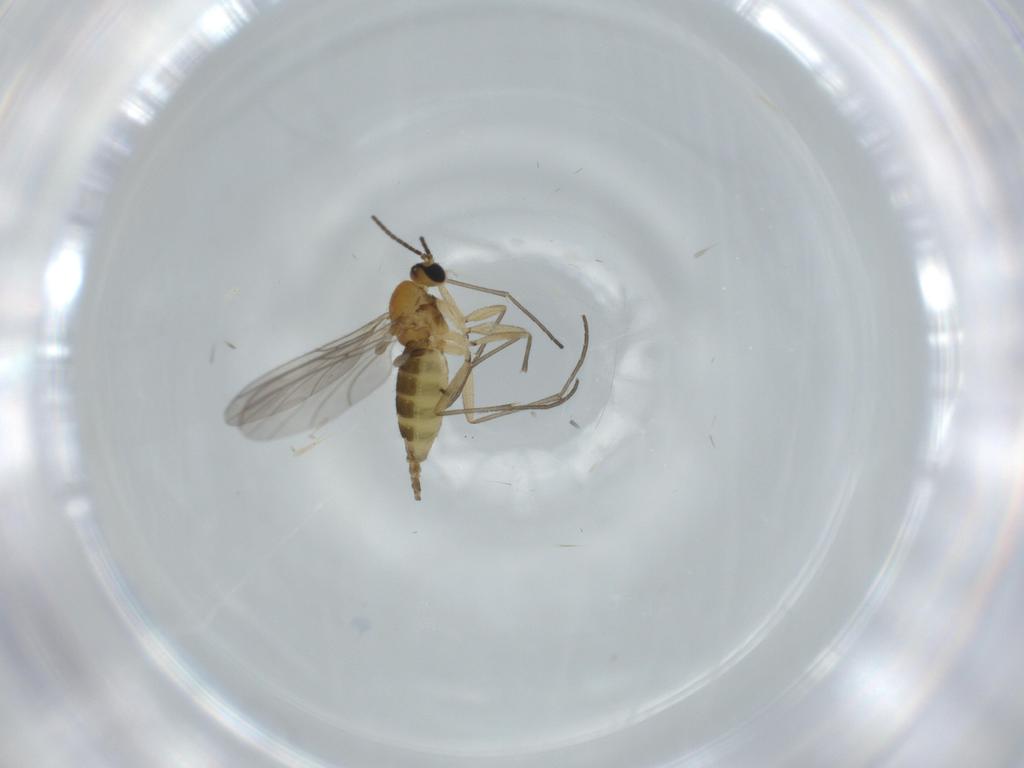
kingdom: Animalia
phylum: Arthropoda
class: Insecta
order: Diptera
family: Sciaridae
